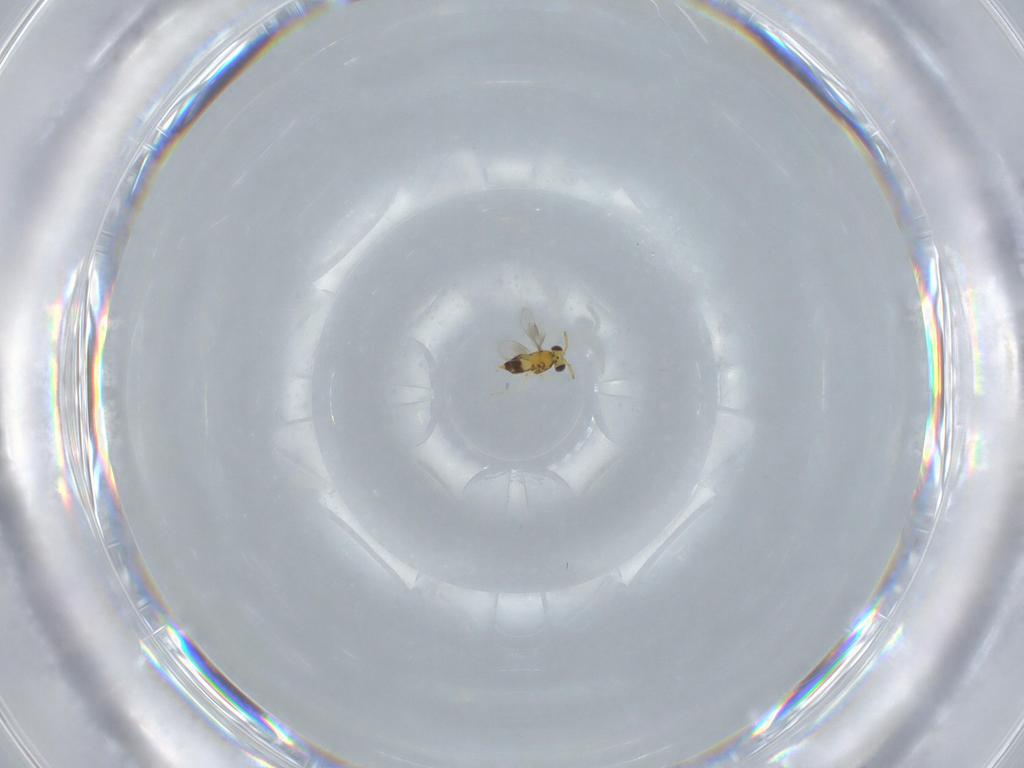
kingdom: Animalia
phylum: Arthropoda
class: Insecta
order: Hymenoptera
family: Aphelinidae
